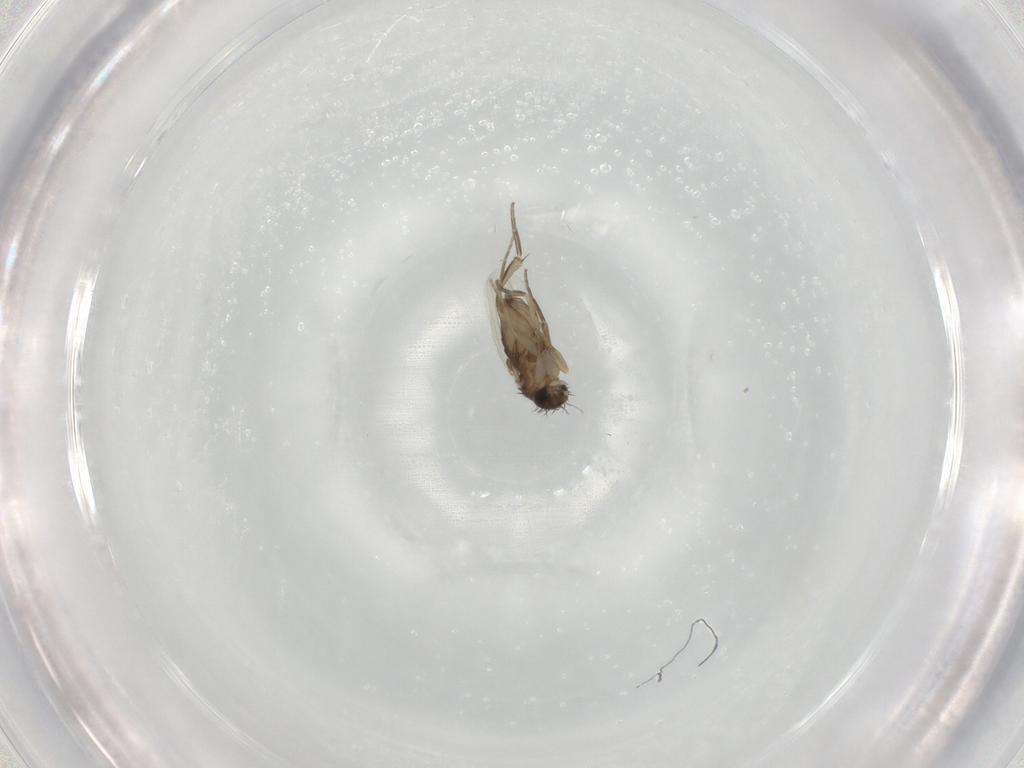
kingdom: Animalia
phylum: Arthropoda
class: Insecta
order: Diptera
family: Phoridae
